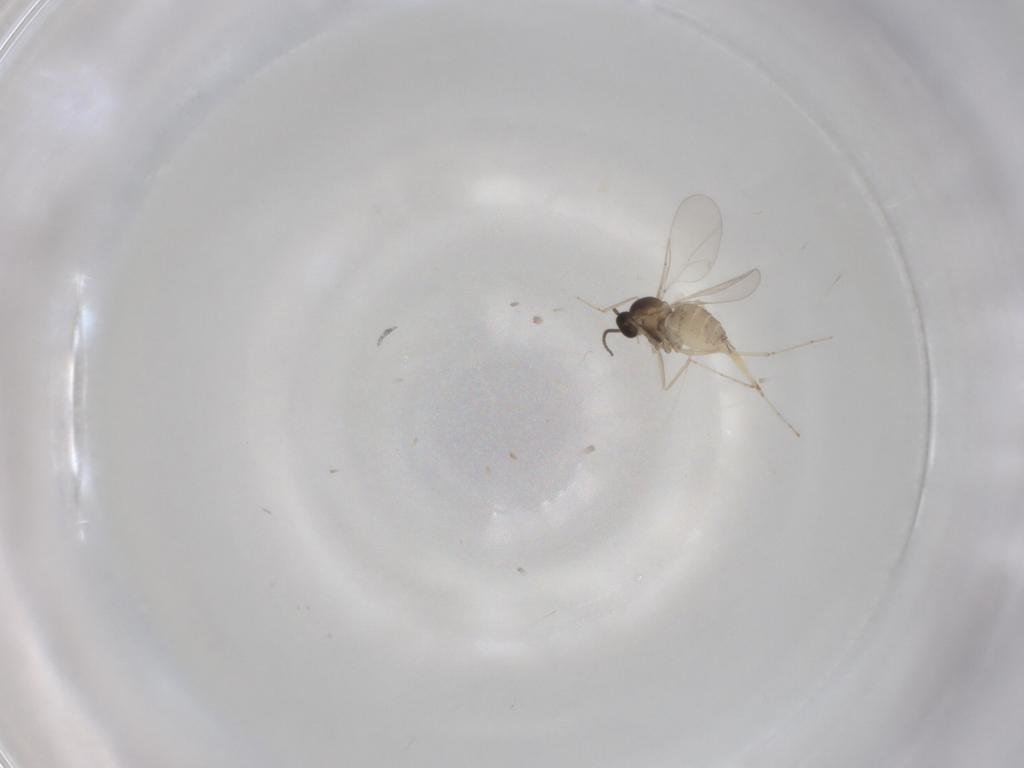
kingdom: Animalia
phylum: Arthropoda
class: Insecta
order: Diptera
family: Cecidomyiidae
